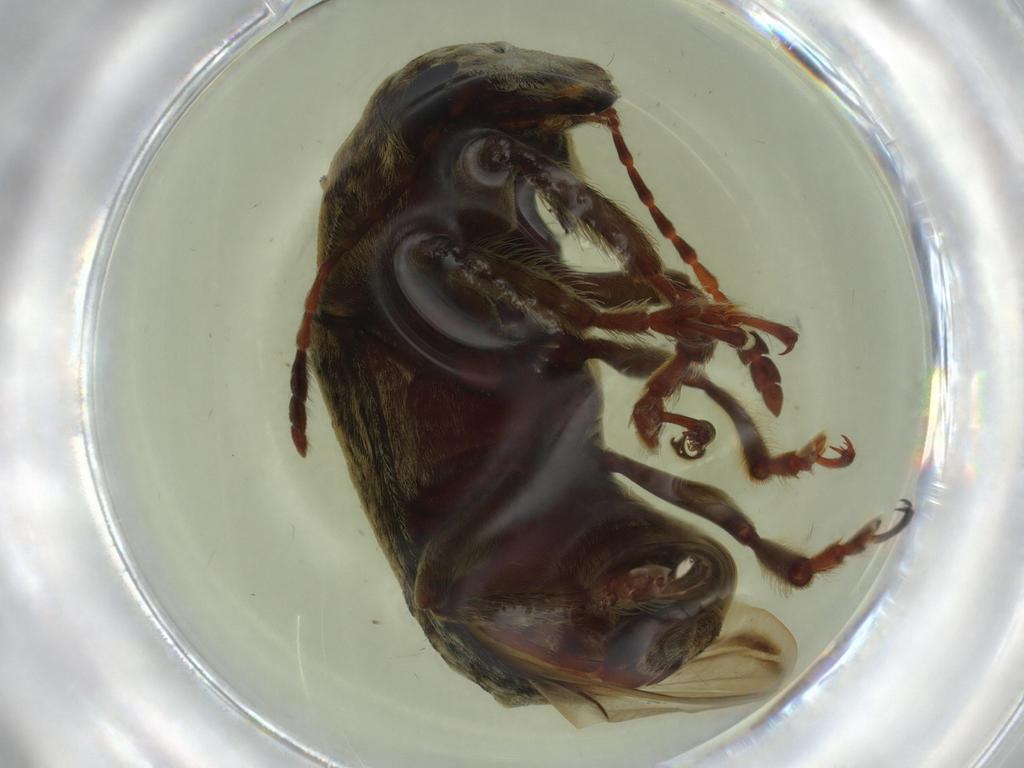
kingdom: Animalia
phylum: Arthropoda
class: Insecta
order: Coleoptera
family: Anthribidae
